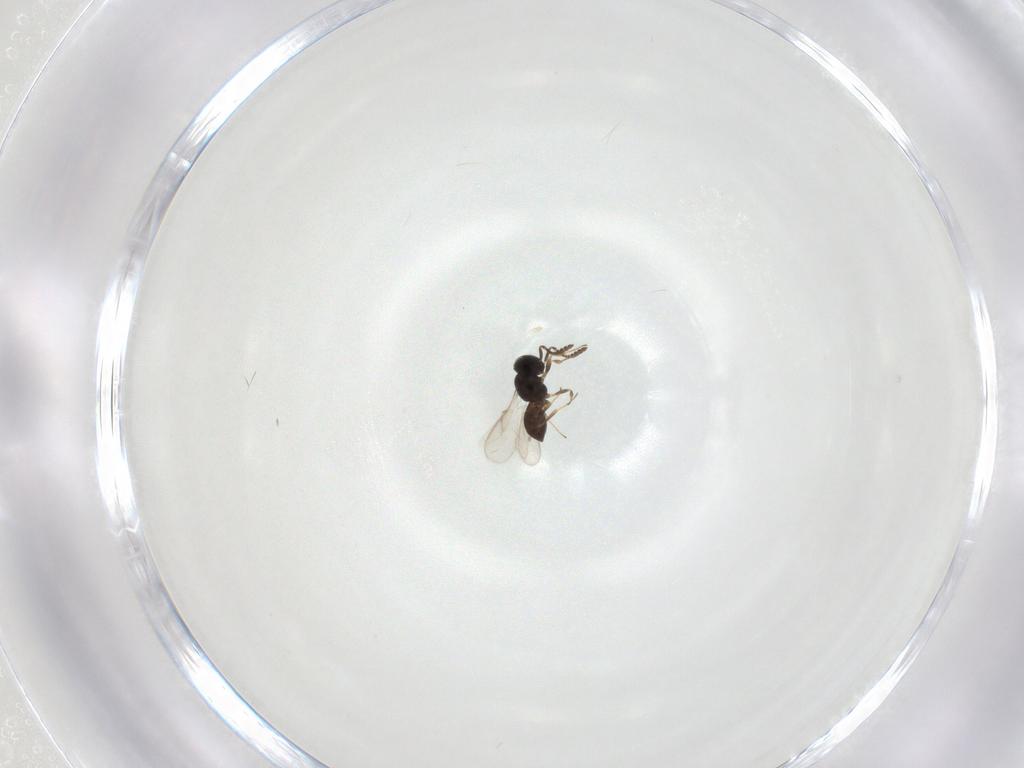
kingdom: Animalia
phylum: Arthropoda
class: Insecta
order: Hymenoptera
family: Scelionidae
